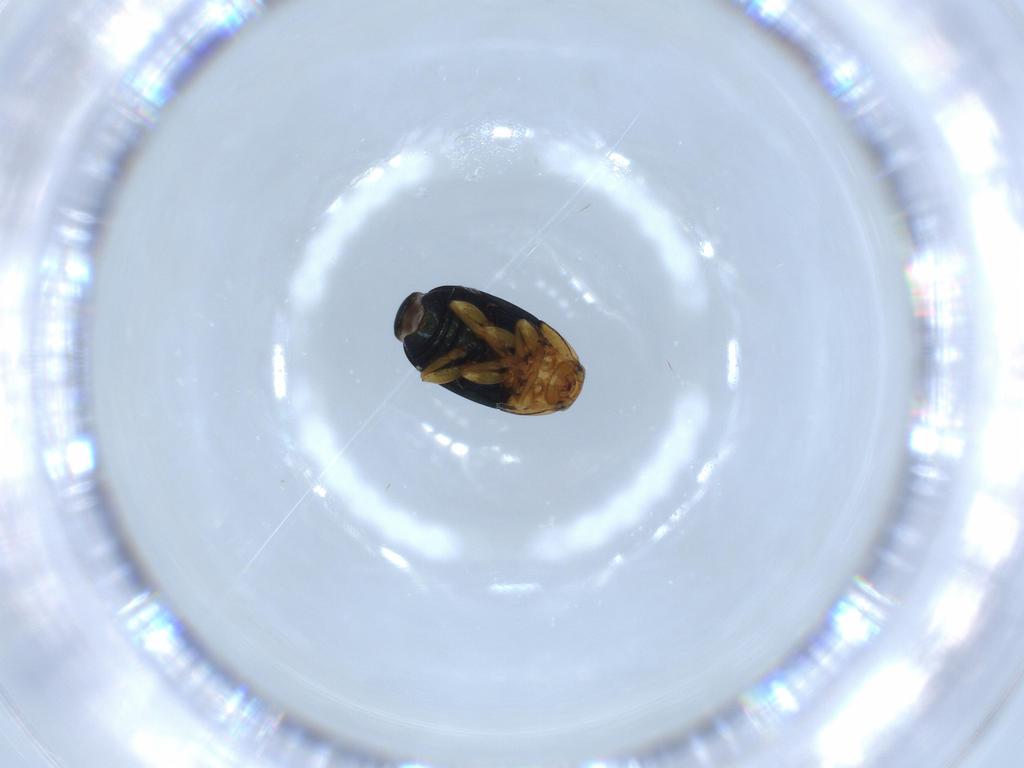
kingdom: Animalia
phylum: Arthropoda
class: Insecta
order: Coleoptera
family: Chrysomelidae
